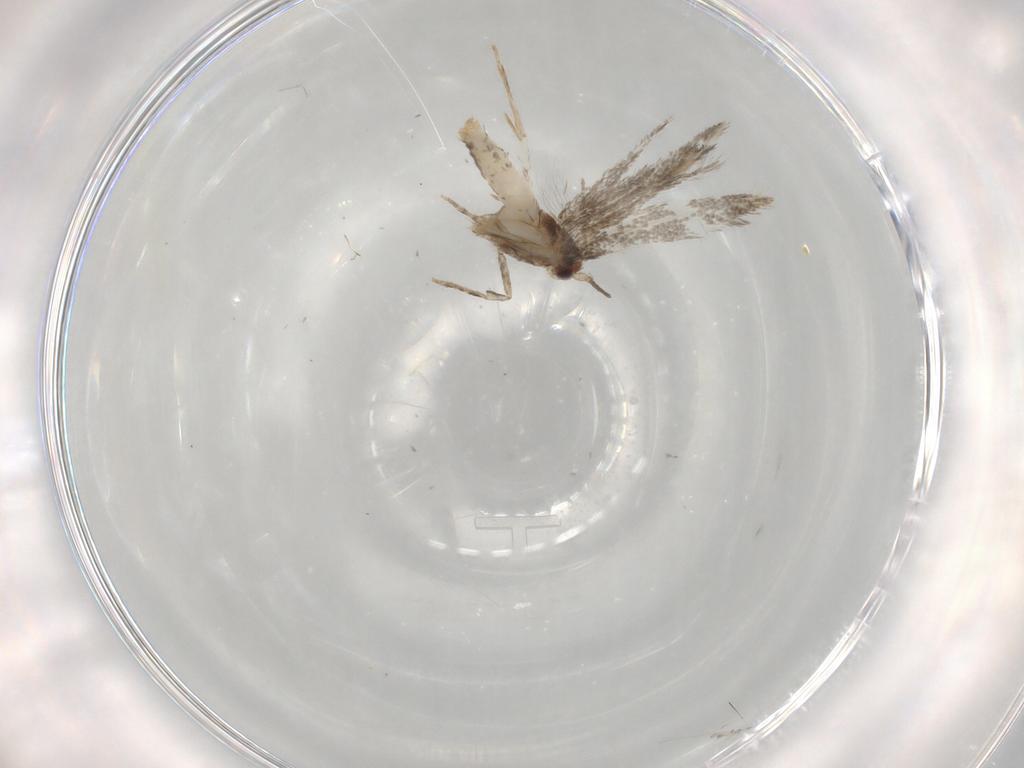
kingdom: Animalia
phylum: Arthropoda
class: Insecta
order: Lepidoptera
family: Tineidae
